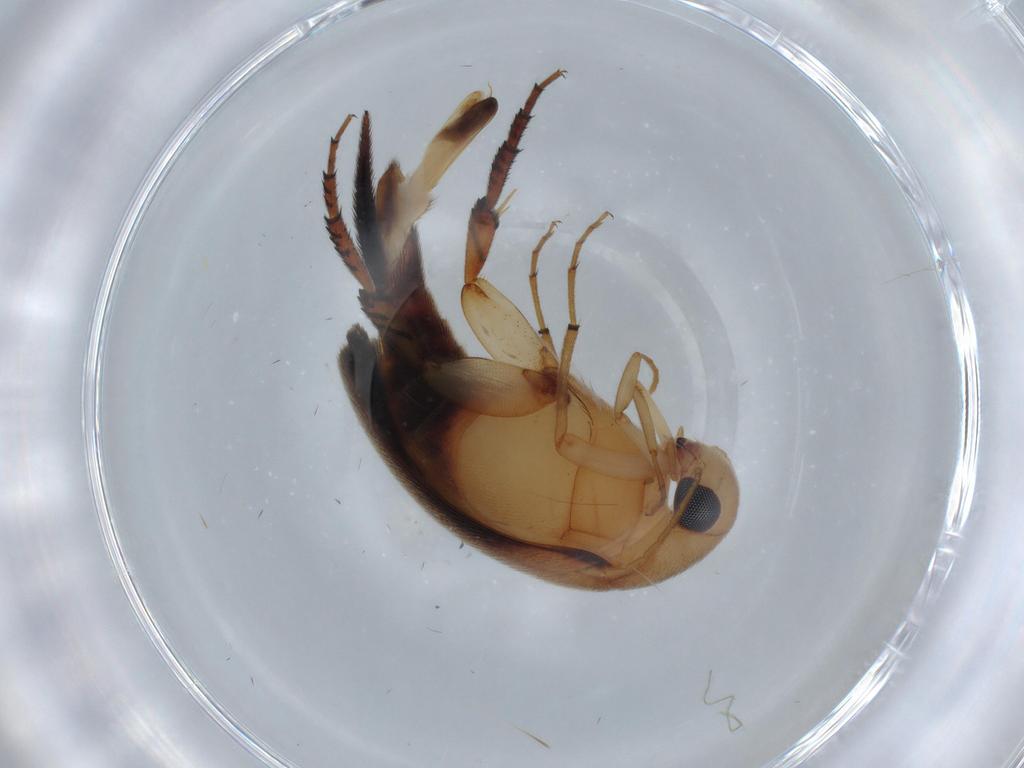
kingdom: Animalia
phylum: Arthropoda
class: Insecta
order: Coleoptera
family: Mordellidae
